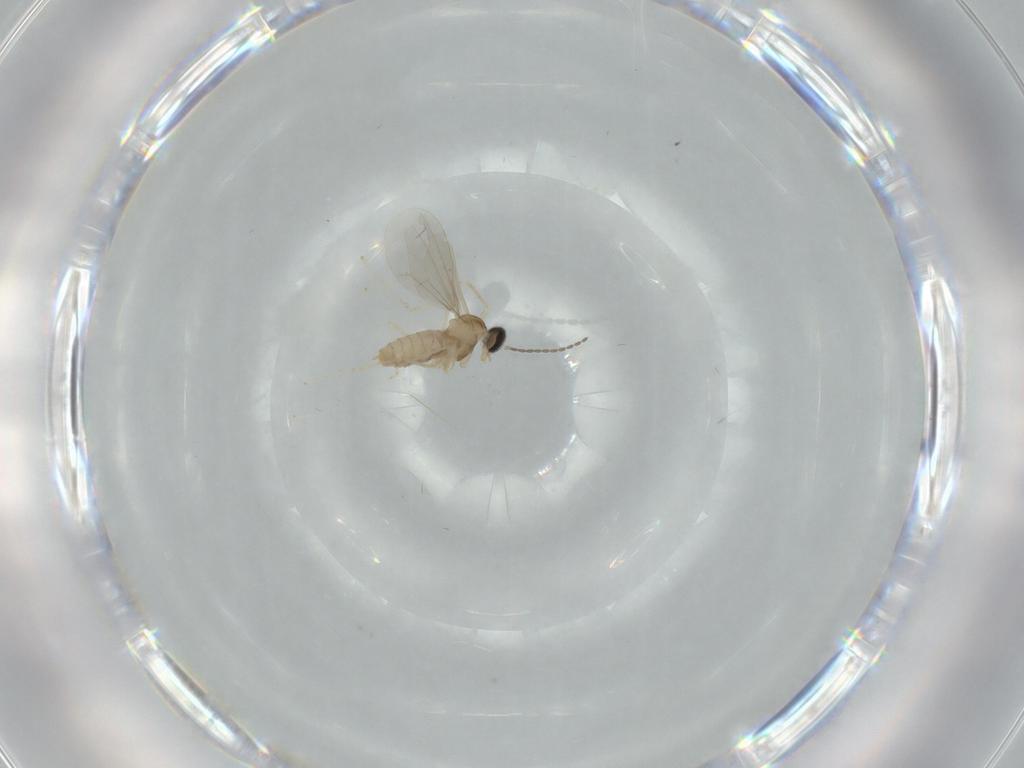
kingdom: Animalia
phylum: Arthropoda
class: Insecta
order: Diptera
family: Cecidomyiidae
